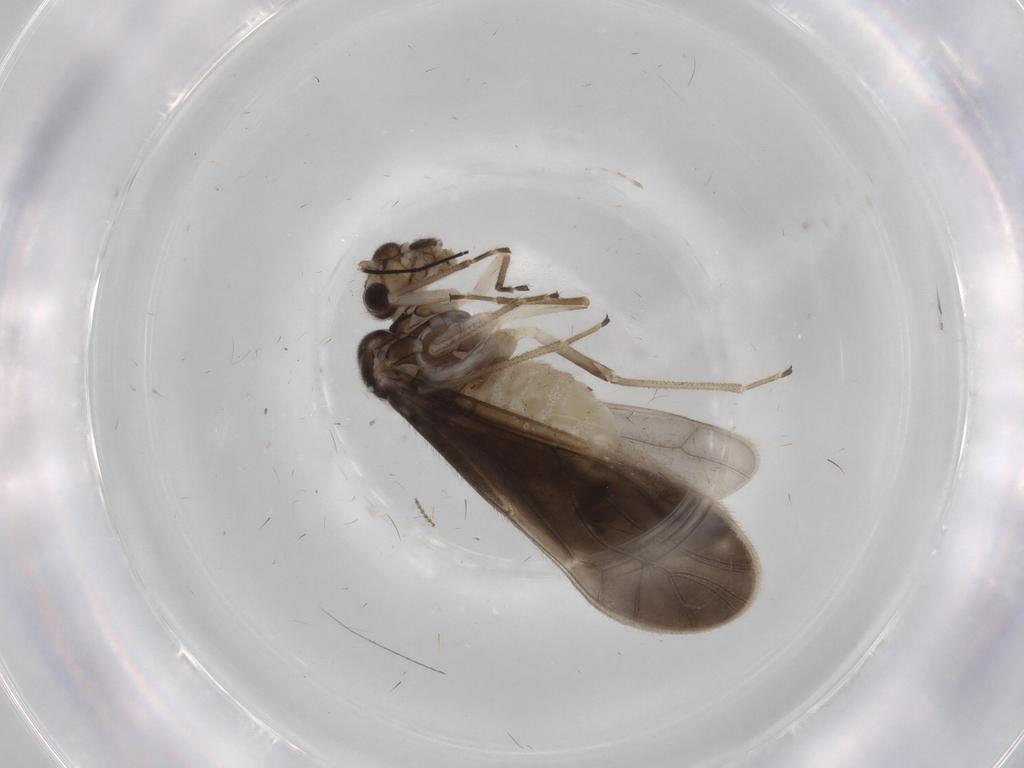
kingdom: Animalia
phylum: Arthropoda
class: Insecta
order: Psocodea
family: Caeciliusidae
